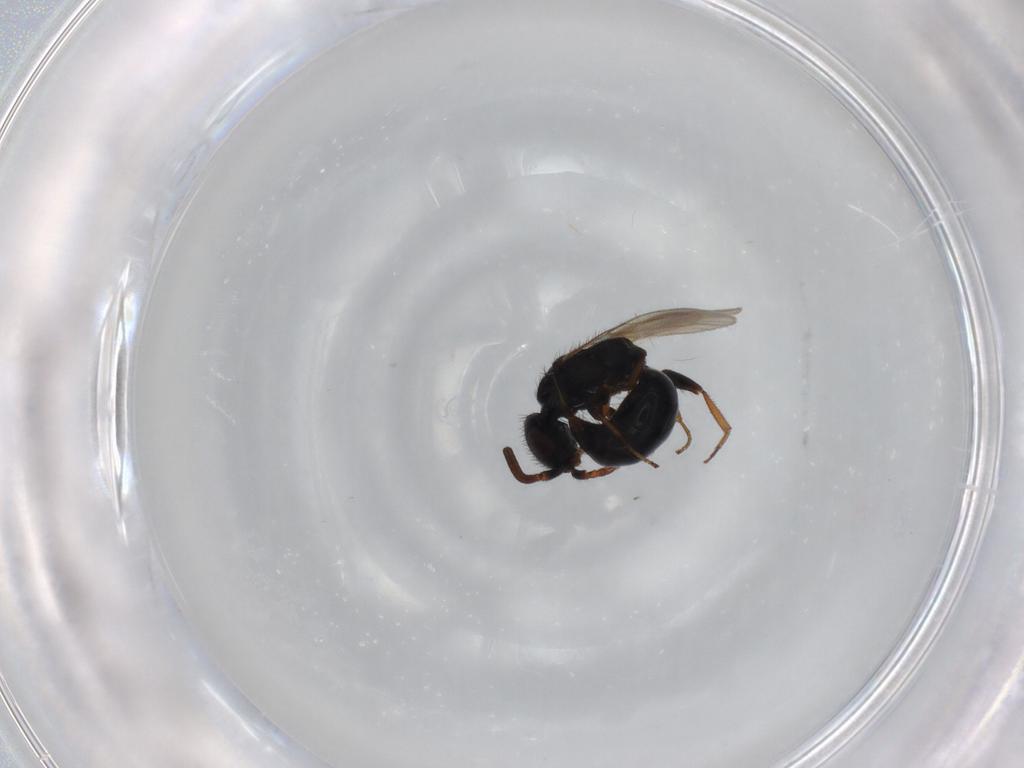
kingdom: Animalia
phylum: Arthropoda
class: Insecta
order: Hymenoptera
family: Bethylidae
